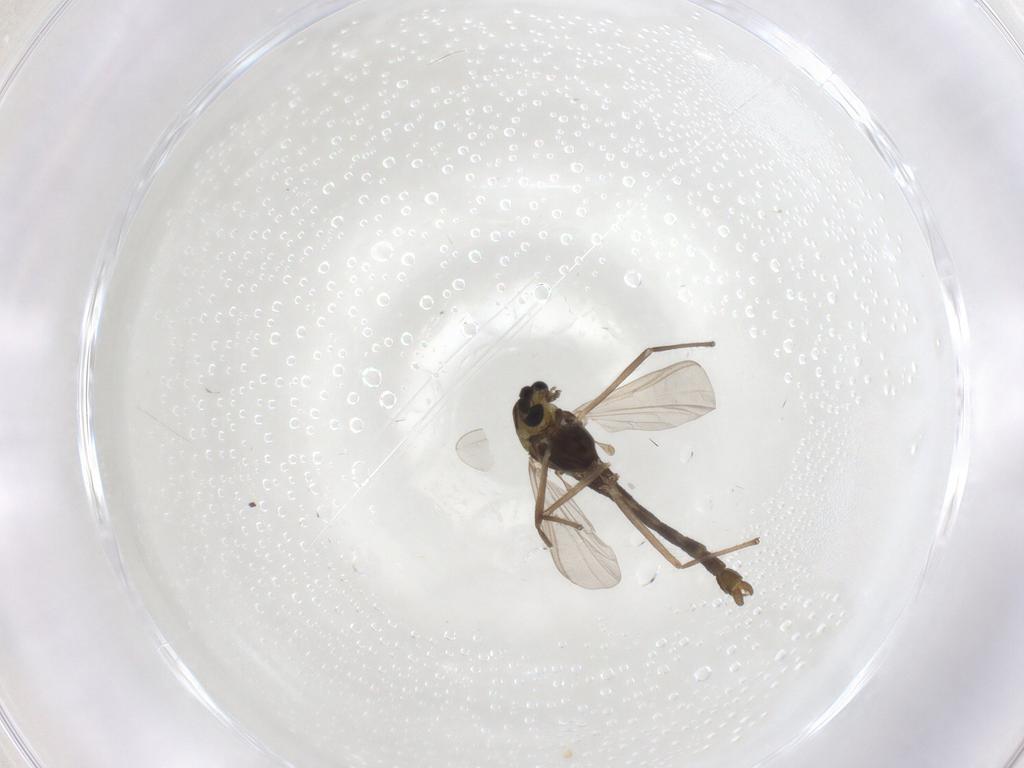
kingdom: Animalia
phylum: Arthropoda
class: Insecta
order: Diptera
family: Chironomidae
